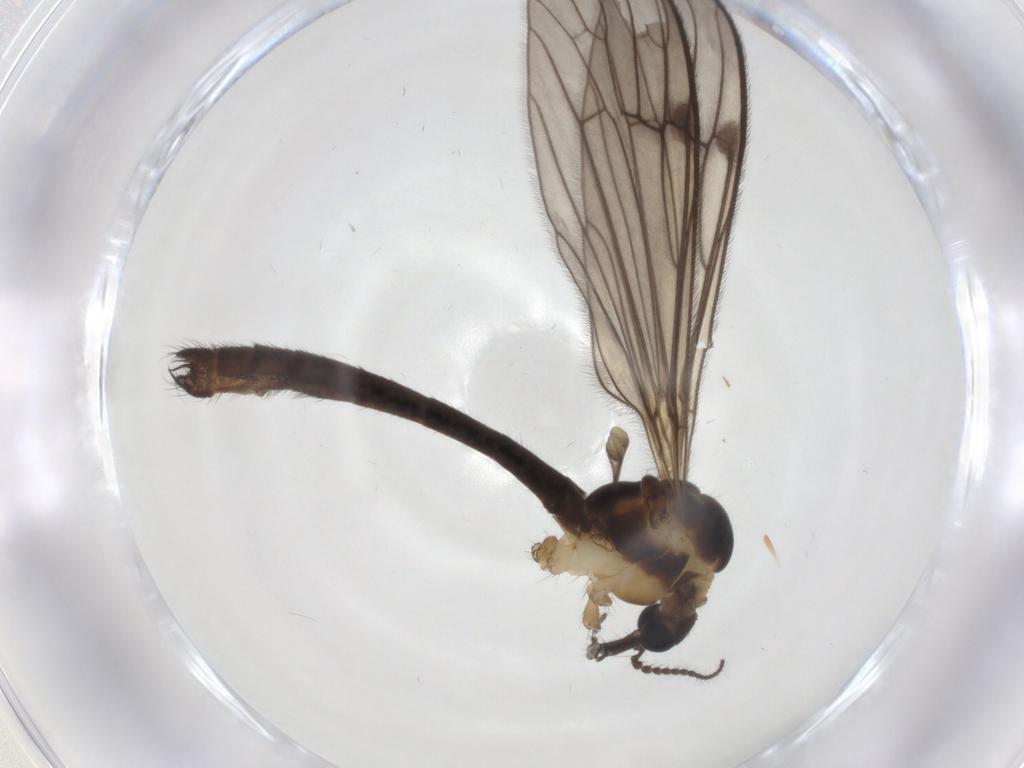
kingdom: Animalia
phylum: Arthropoda
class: Insecta
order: Diptera
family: Limoniidae
